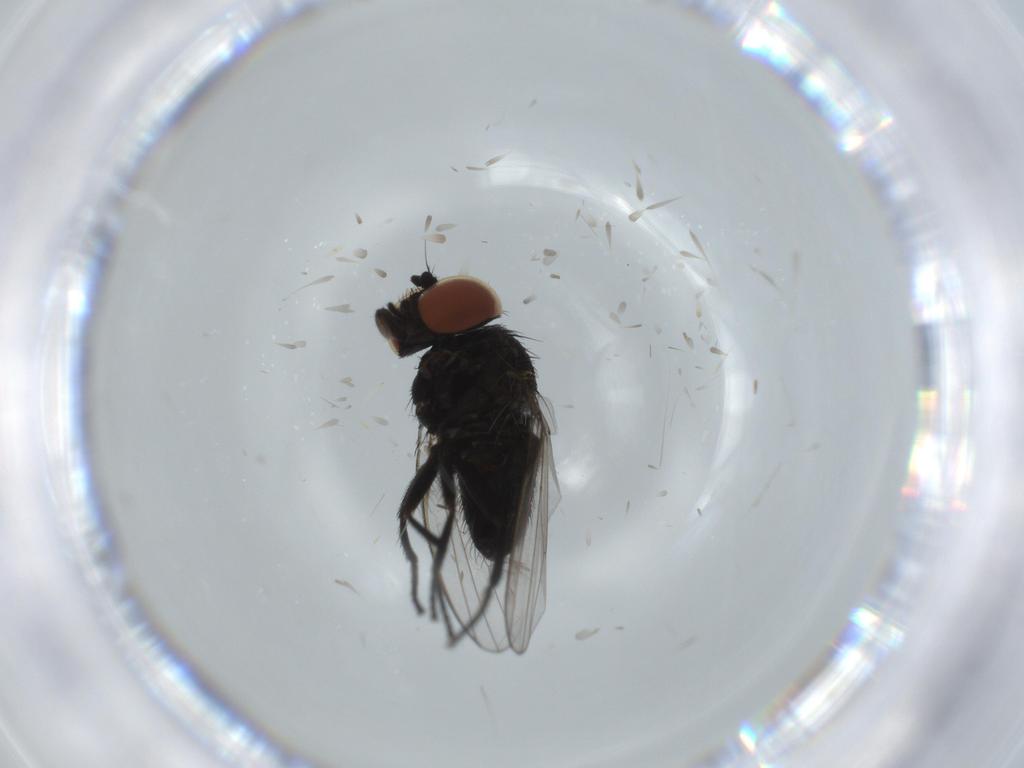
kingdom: Animalia
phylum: Arthropoda
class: Insecta
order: Diptera
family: Milichiidae
